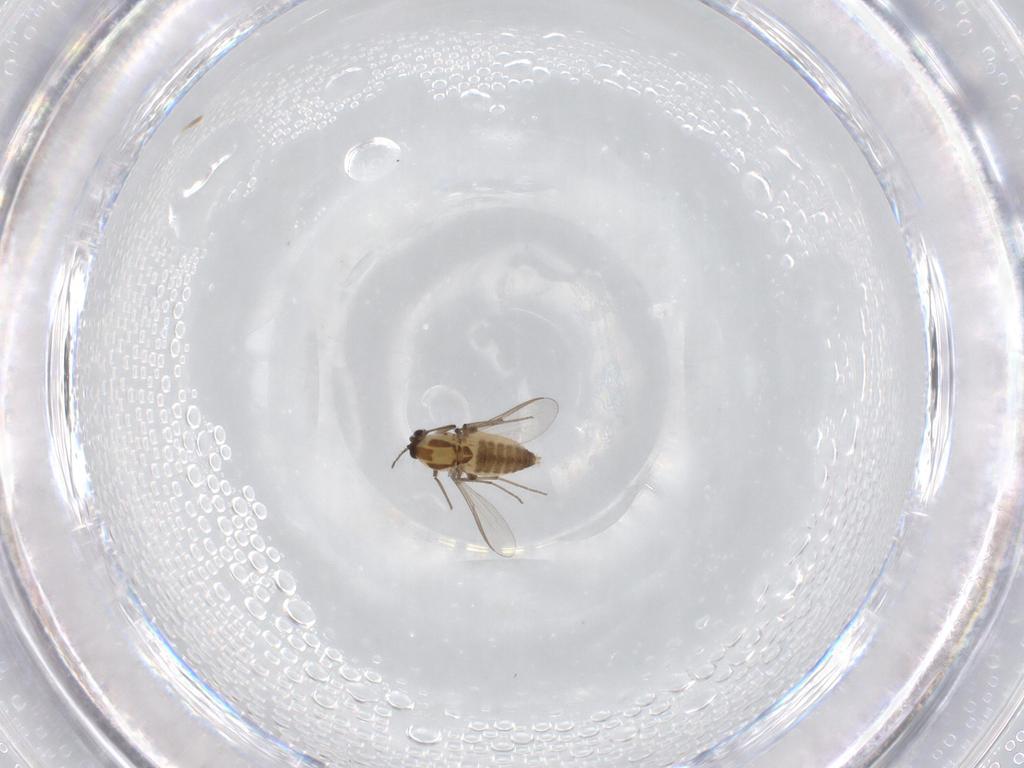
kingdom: Animalia
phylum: Arthropoda
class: Insecta
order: Diptera
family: Chironomidae
